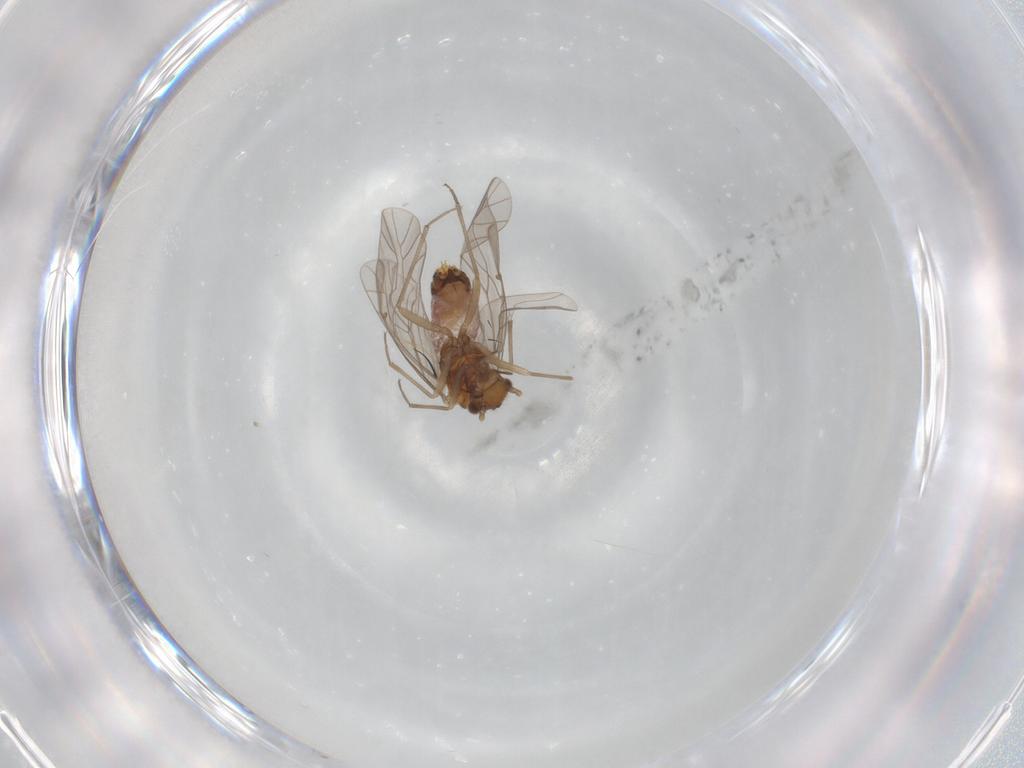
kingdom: Animalia
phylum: Arthropoda
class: Insecta
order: Psocodea
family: Lachesillidae
